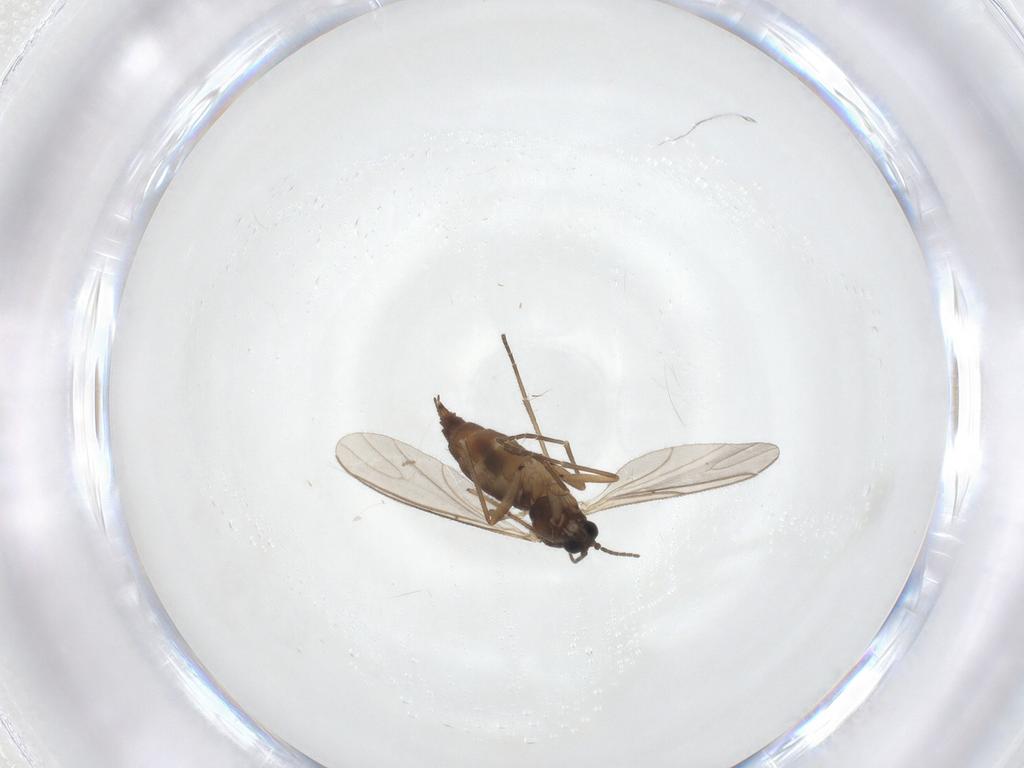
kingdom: Animalia
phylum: Arthropoda
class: Insecta
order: Diptera
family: Sciaridae
